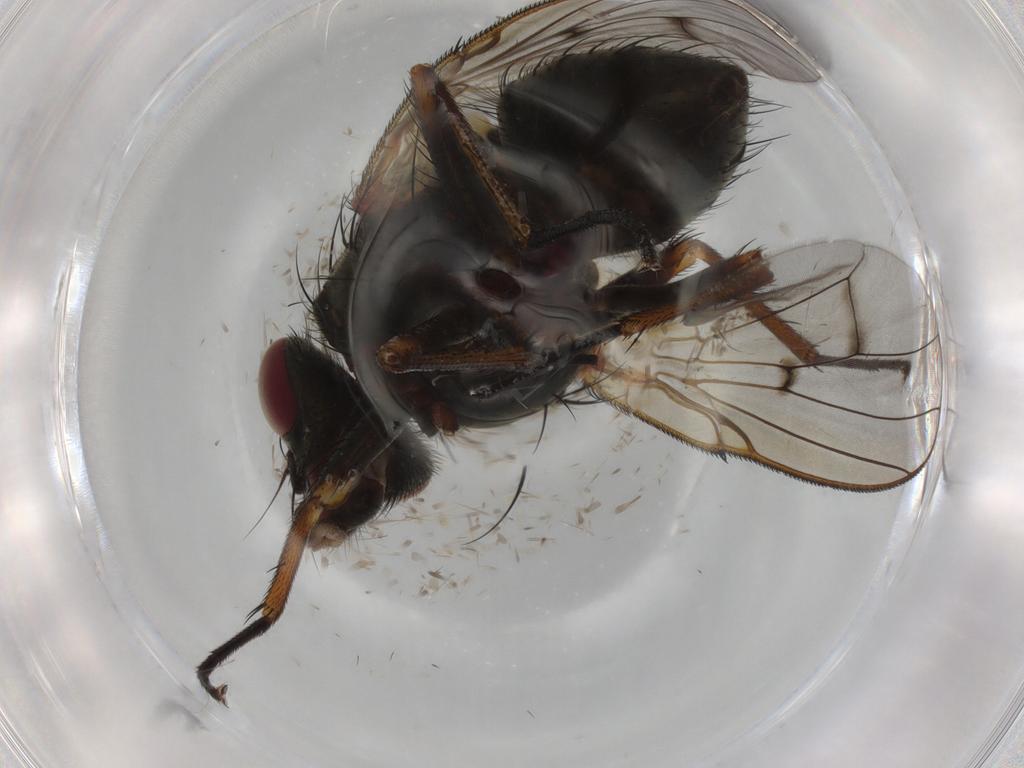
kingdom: Animalia
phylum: Arthropoda
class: Insecta
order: Diptera
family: Muscidae
